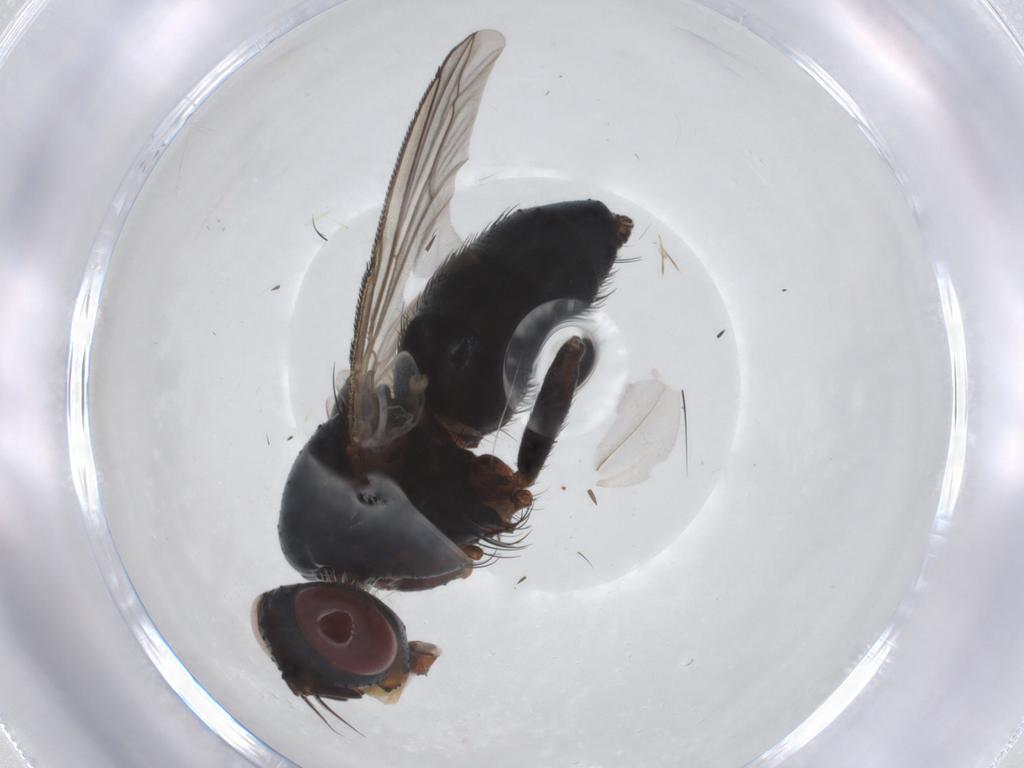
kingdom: Animalia
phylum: Arthropoda
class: Insecta
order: Diptera
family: Tachinidae
